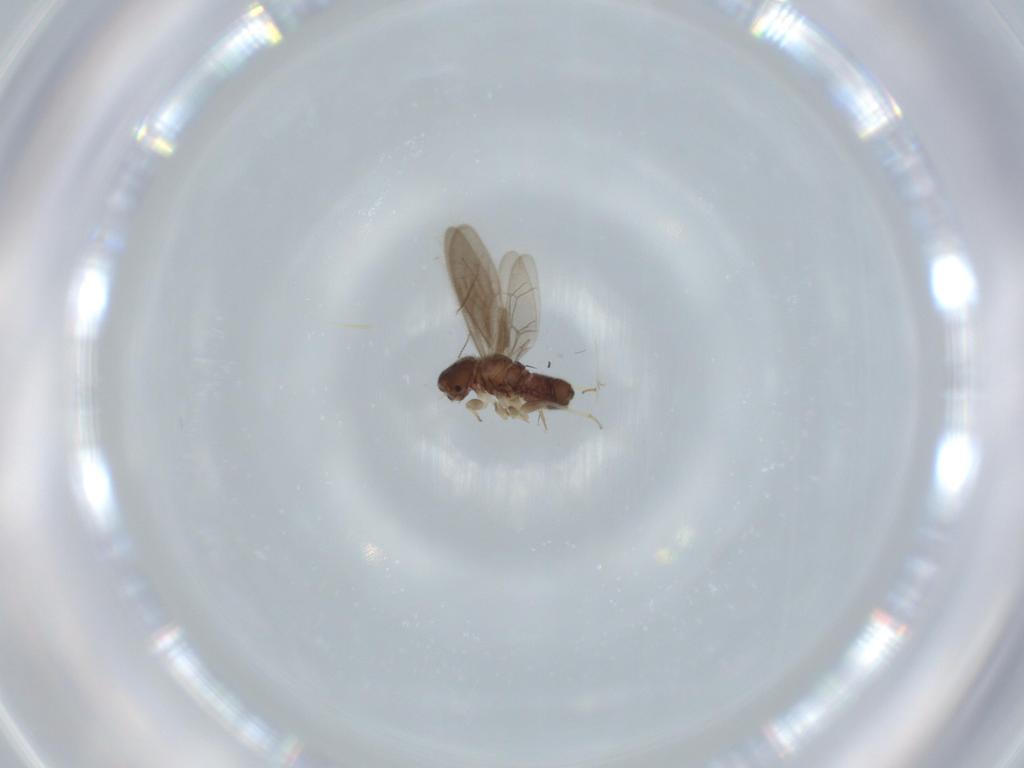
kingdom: Animalia
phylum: Arthropoda
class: Insecta
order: Psocodea
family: Archipsocidae
